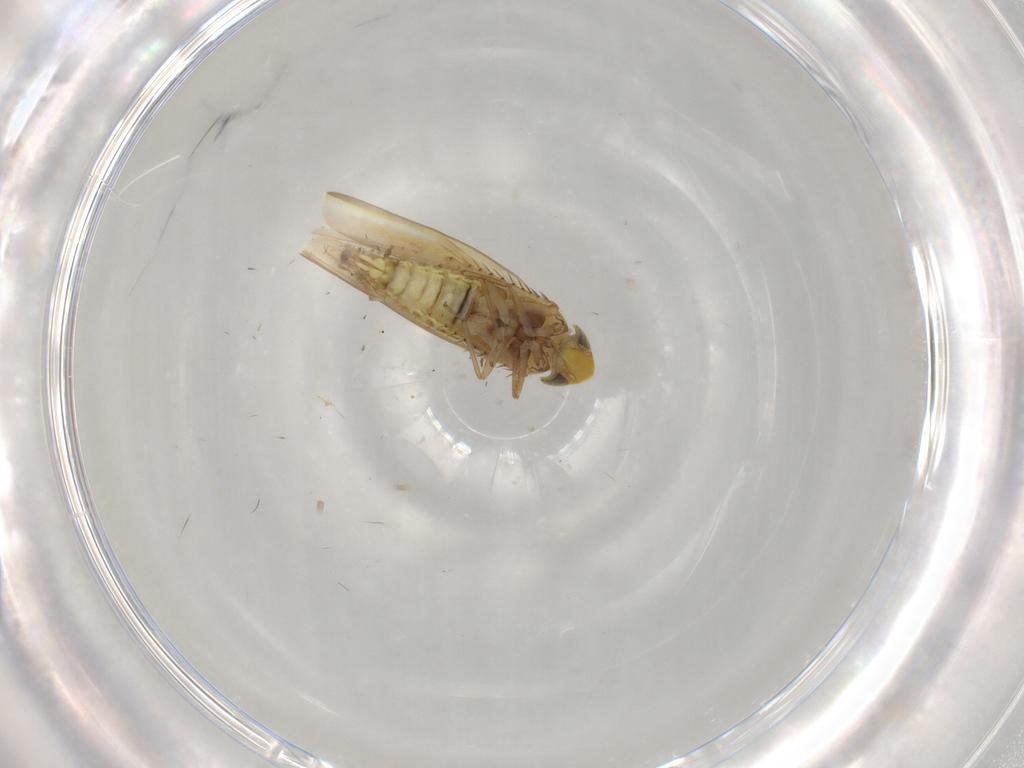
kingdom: Animalia
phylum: Arthropoda
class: Insecta
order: Hemiptera
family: Cicadellidae
